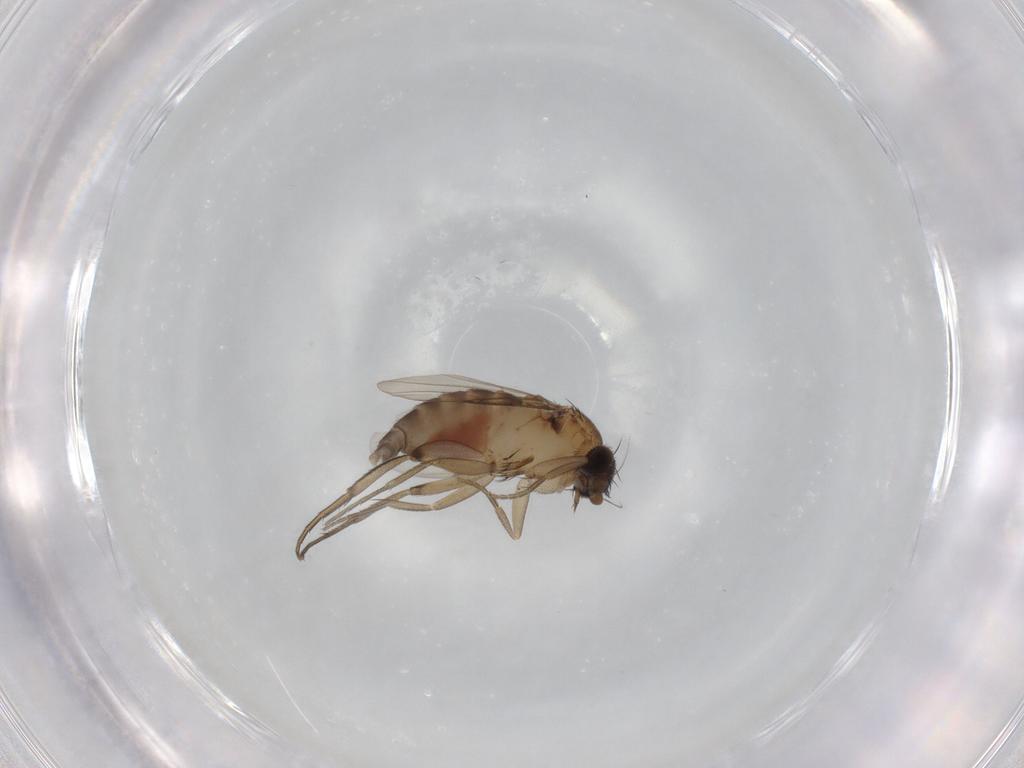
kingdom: Animalia
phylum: Arthropoda
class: Insecta
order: Diptera
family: Phoridae
